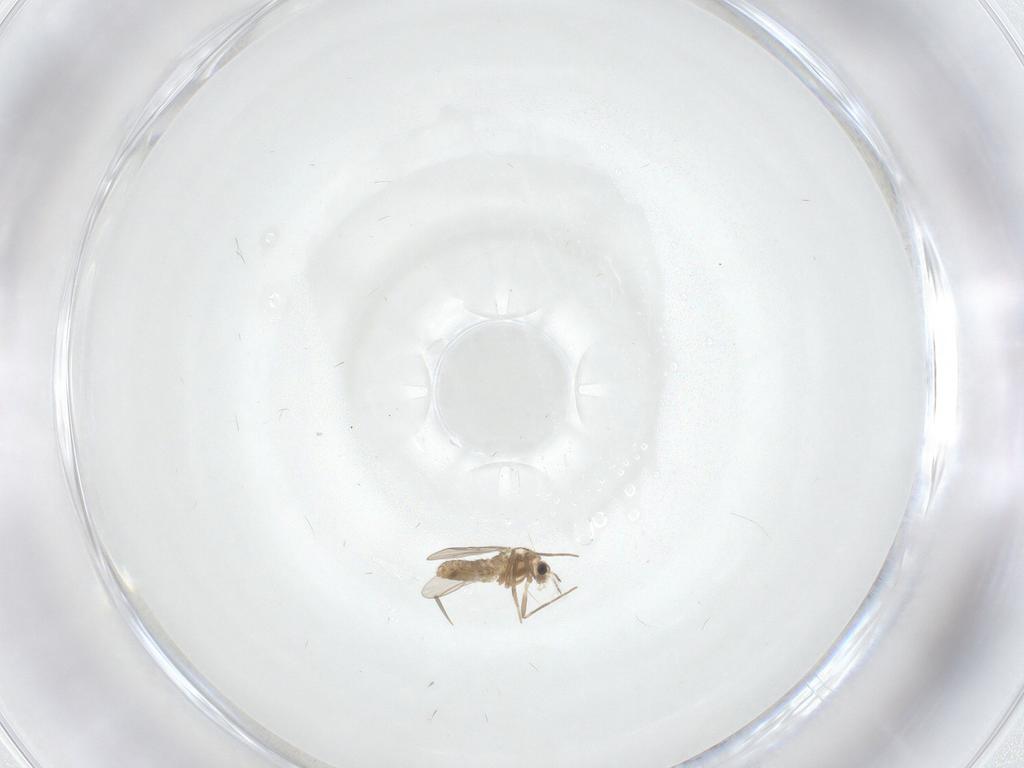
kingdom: Animalia
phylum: Arthropoda
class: Insecta
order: Diptera
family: Chironomidae
